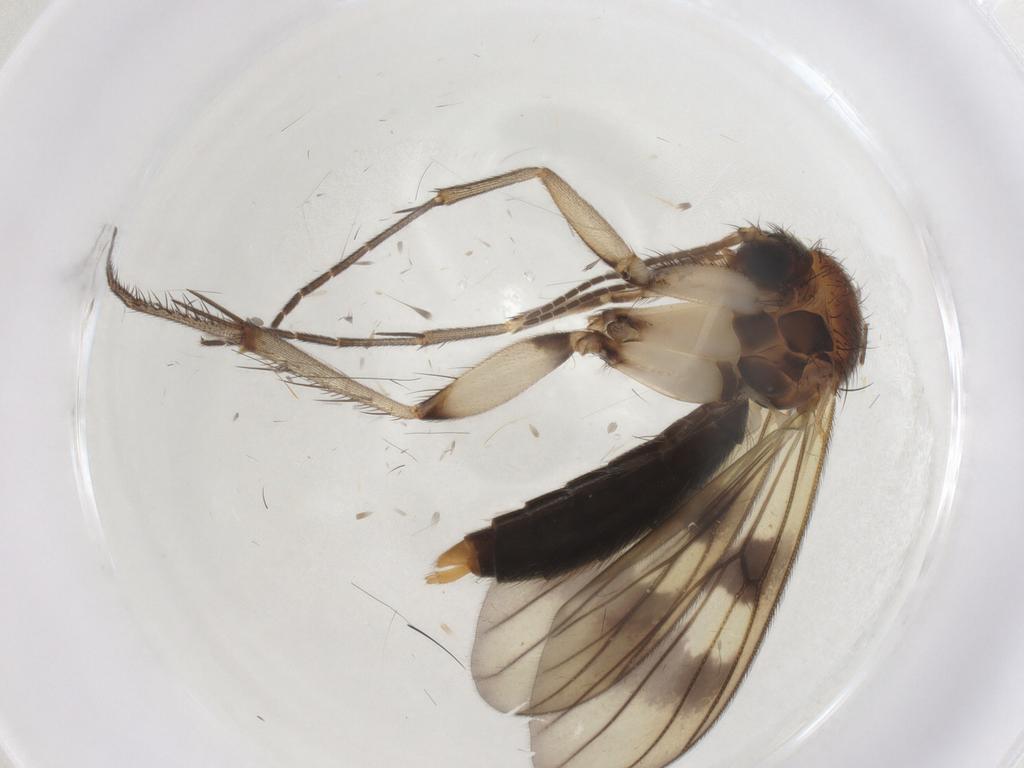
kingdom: Animalia
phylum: Arthropoda
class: Insecta
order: Diptera
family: Mycetophilidae
